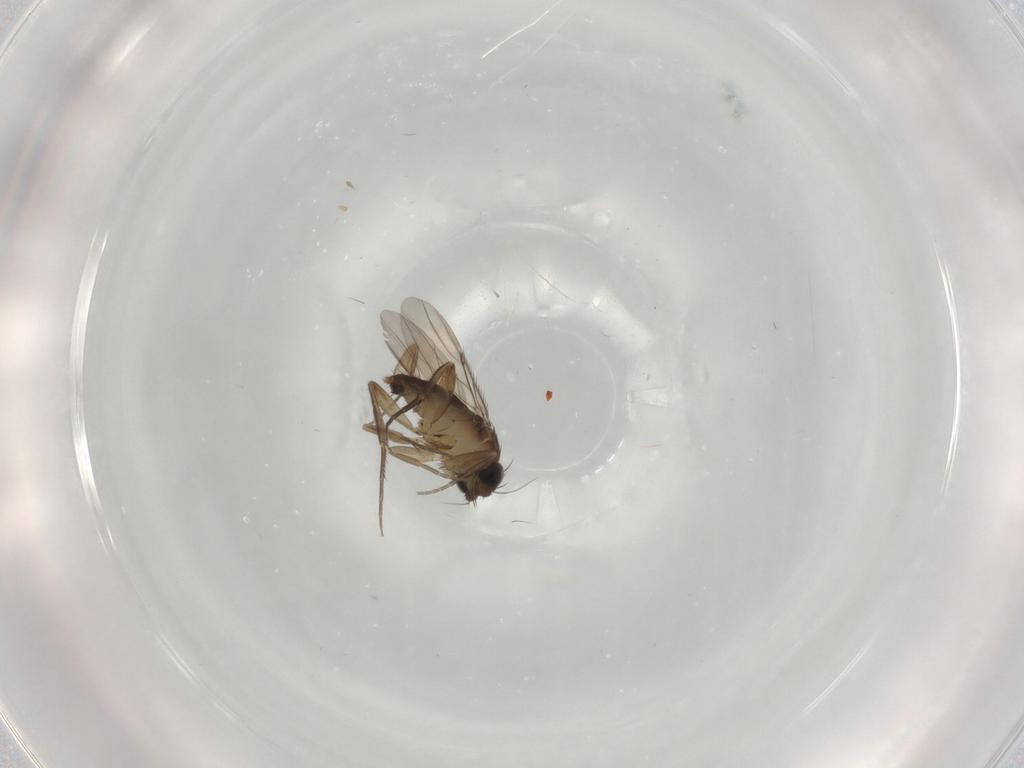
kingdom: Animalia
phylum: Arthropoda
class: Insecta
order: Diptera
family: Phoridae
